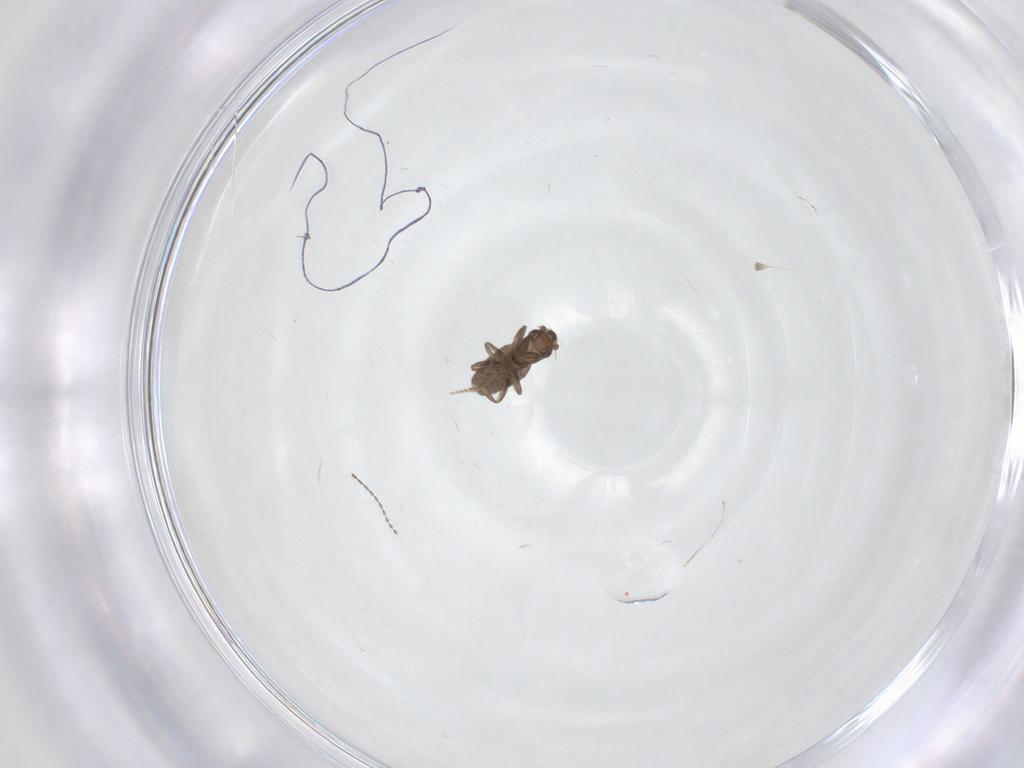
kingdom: Animalia
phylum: Arthropoda
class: Insecta
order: Diptera
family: Phoridae
